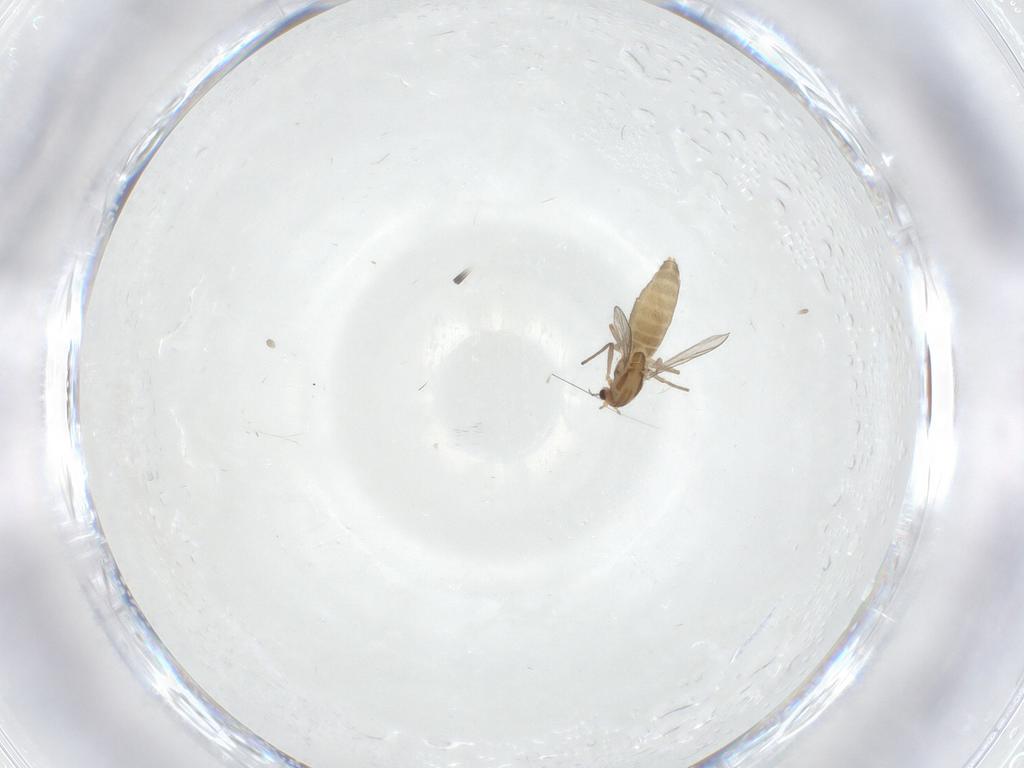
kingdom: Animalia
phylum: Arthropoda
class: Insecta
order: Diptera
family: Chironomidae
